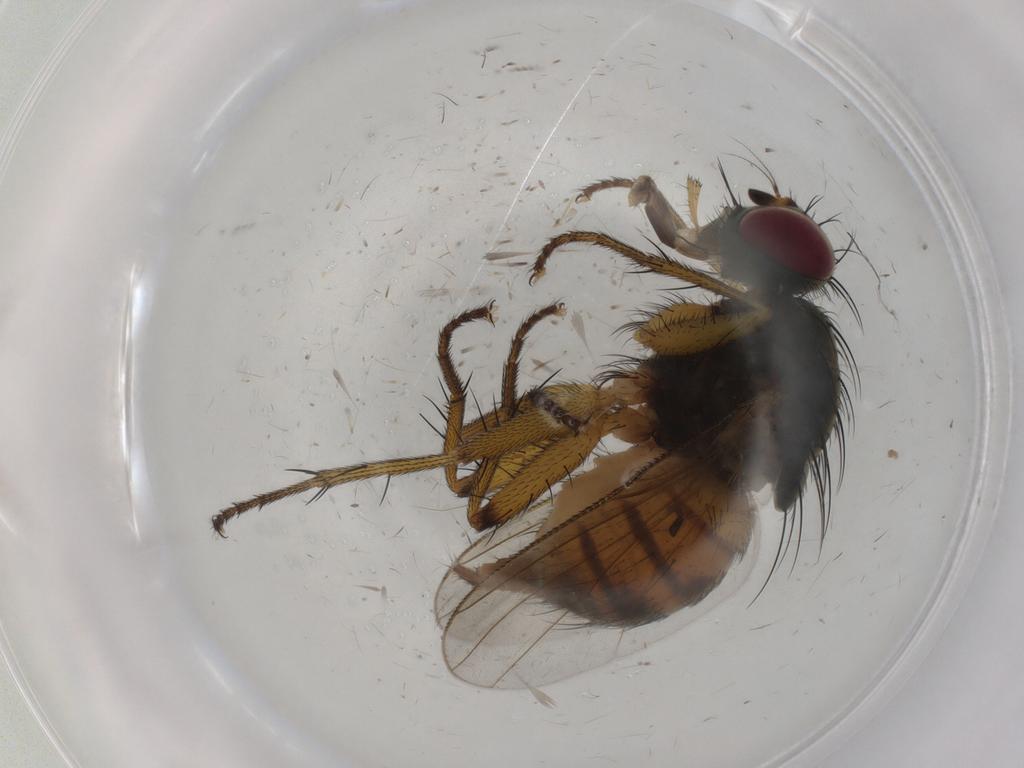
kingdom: Animalia
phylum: Arthropoda
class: Insecta
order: Diptera
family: Muscidae
